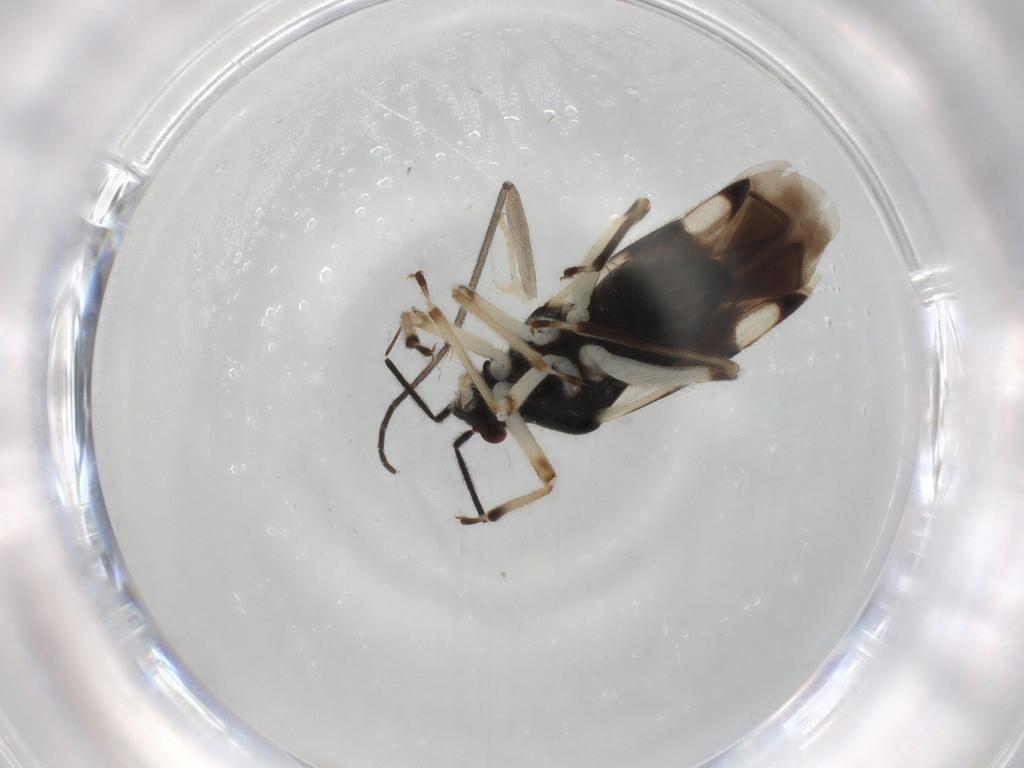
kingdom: Animalia
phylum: Arthropoda
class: Insecta
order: Hemiptera
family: Miridae
